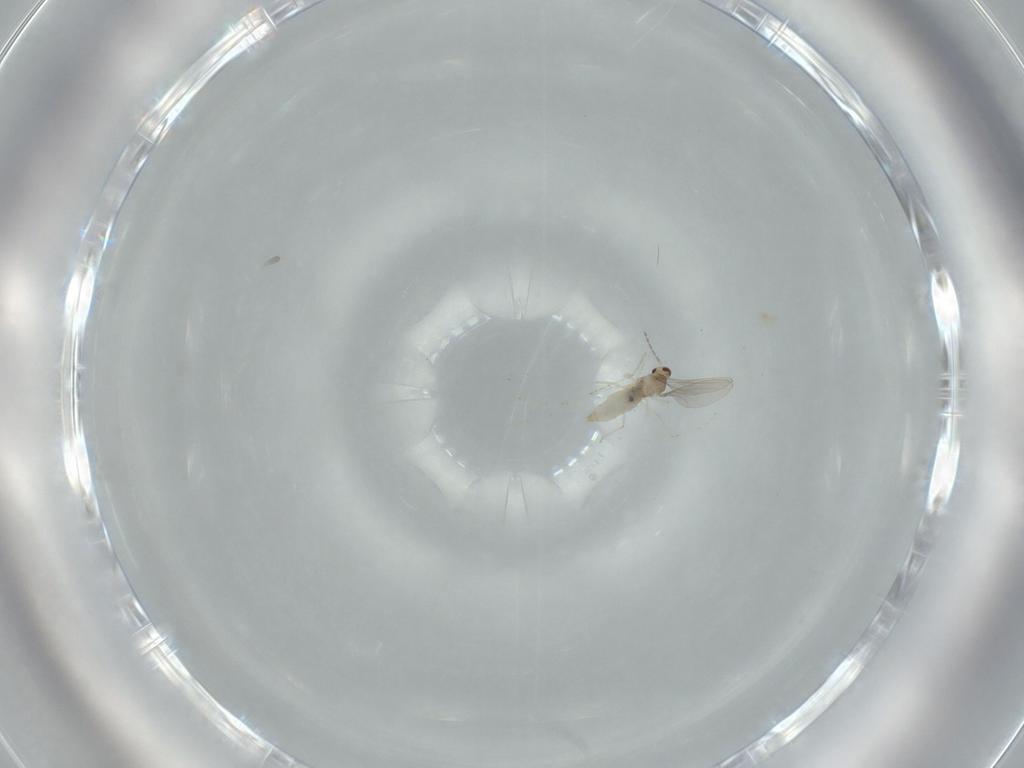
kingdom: Animalia
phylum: Arthropoda
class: Insecta
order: Diptera
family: Cecidomyiidae
